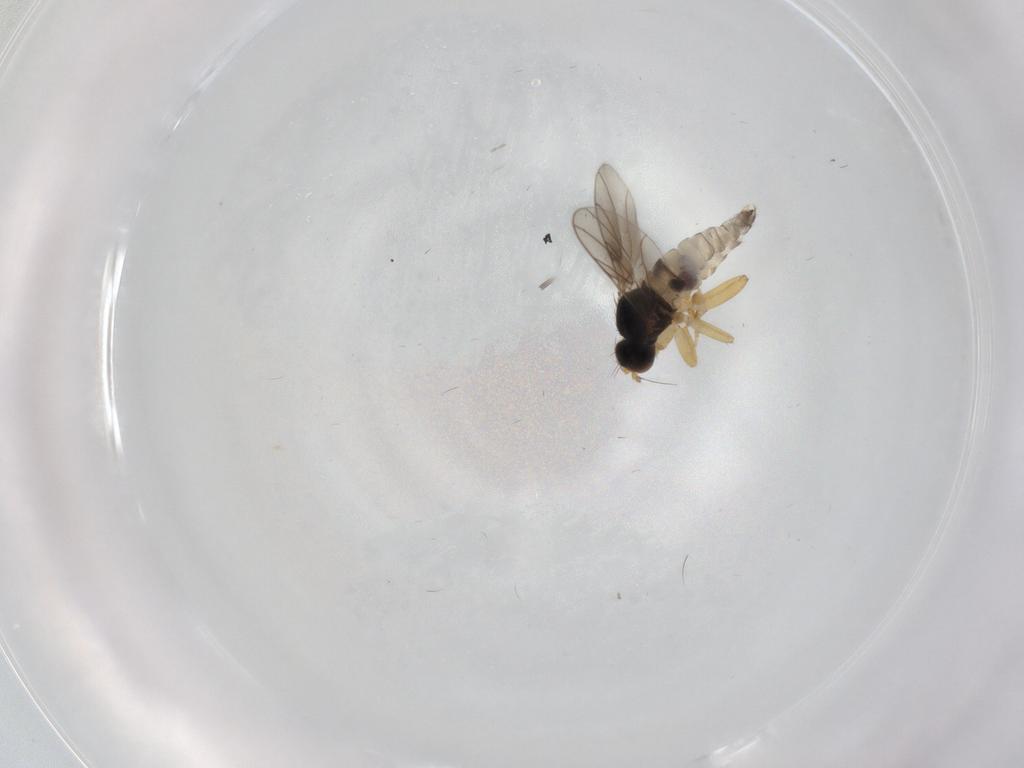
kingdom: Animalia
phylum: Arthropoda
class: Insecta
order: Diptera
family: Hybotidae
